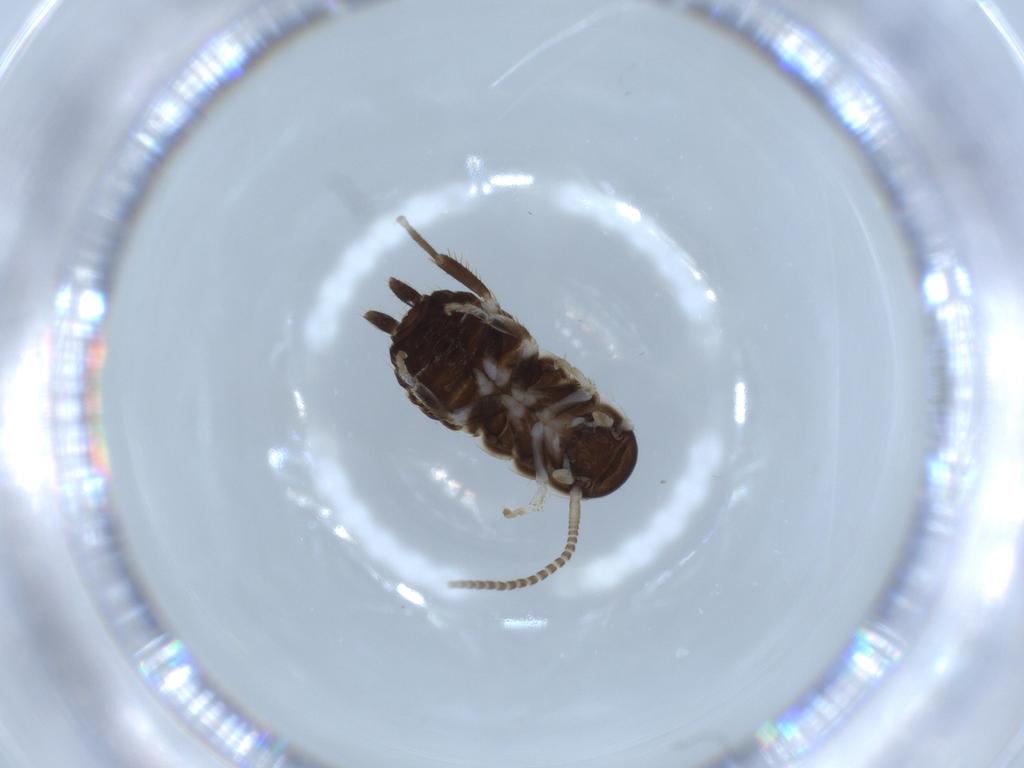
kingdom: Animalia
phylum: Arthropoda
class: Insecta
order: Blattodea
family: Ectobiidae
